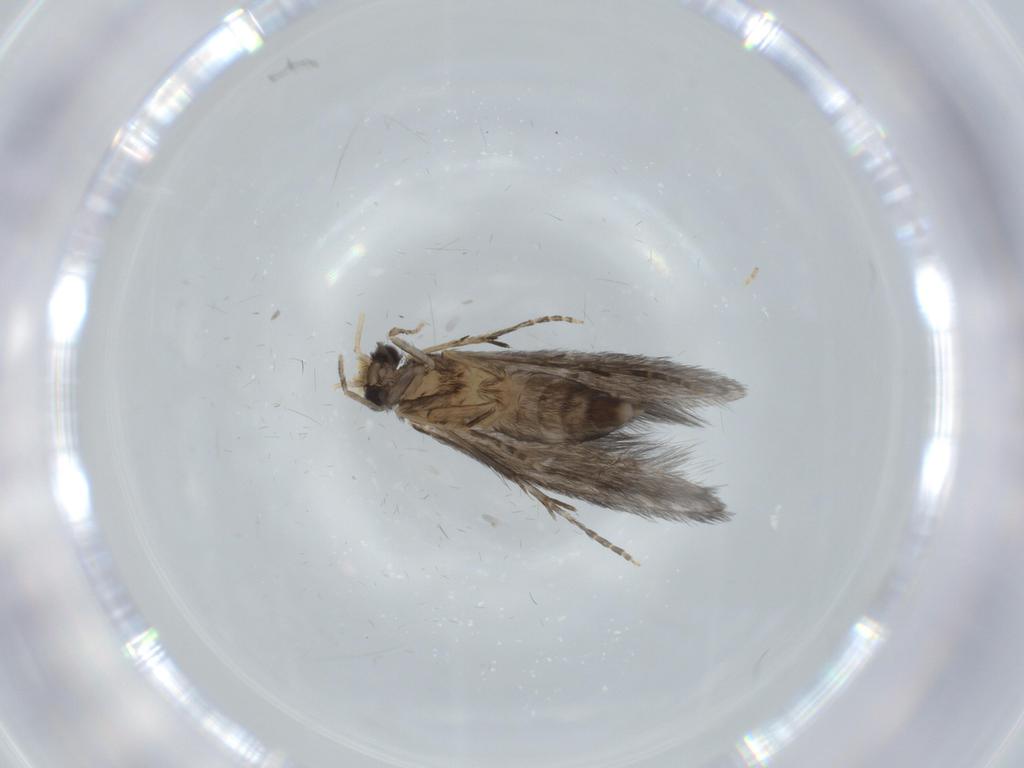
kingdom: Animalia
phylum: Arthropoda
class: Insecta
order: Trichoptera
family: Hydroptilidae
